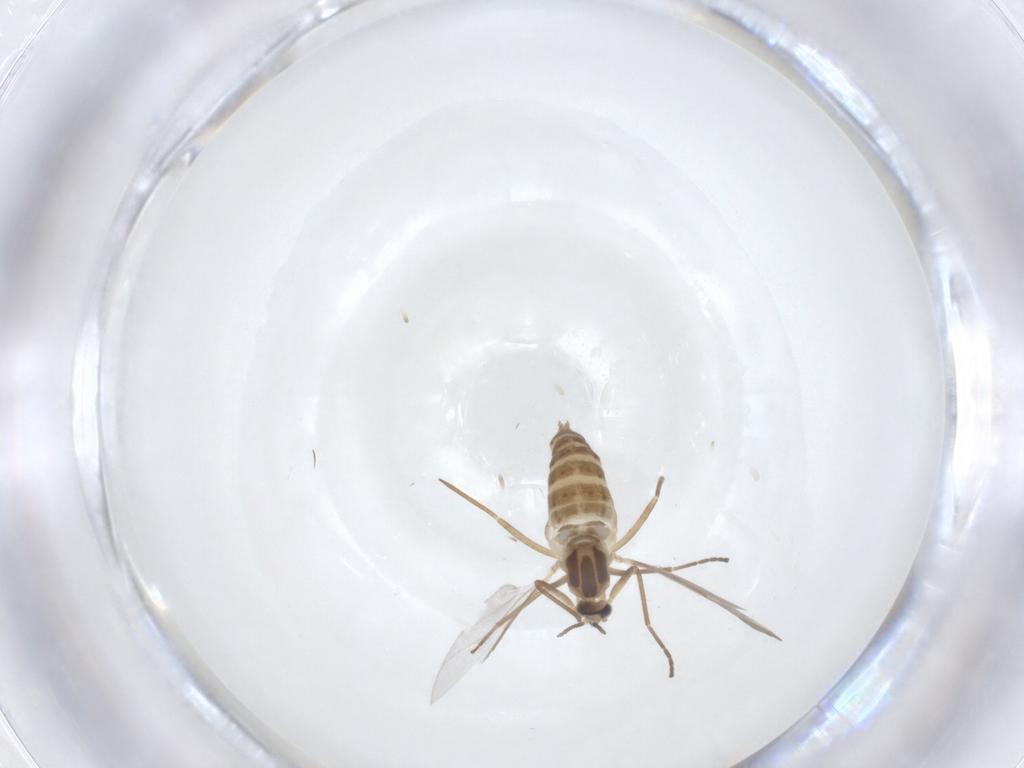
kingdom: Animalia
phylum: Arthropoda
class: Insecta
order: Diptera
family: Cecidomyiidae
